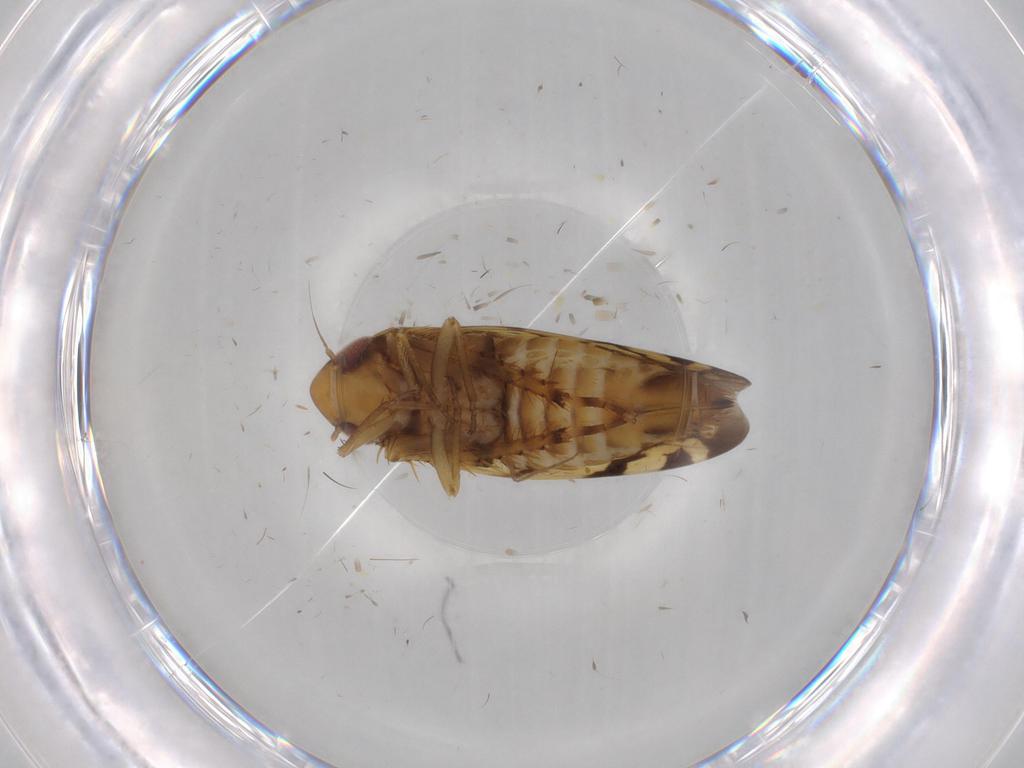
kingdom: Animalia
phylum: Arthropoda
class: Insecta
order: Hemiptera
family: Cicadellidae
